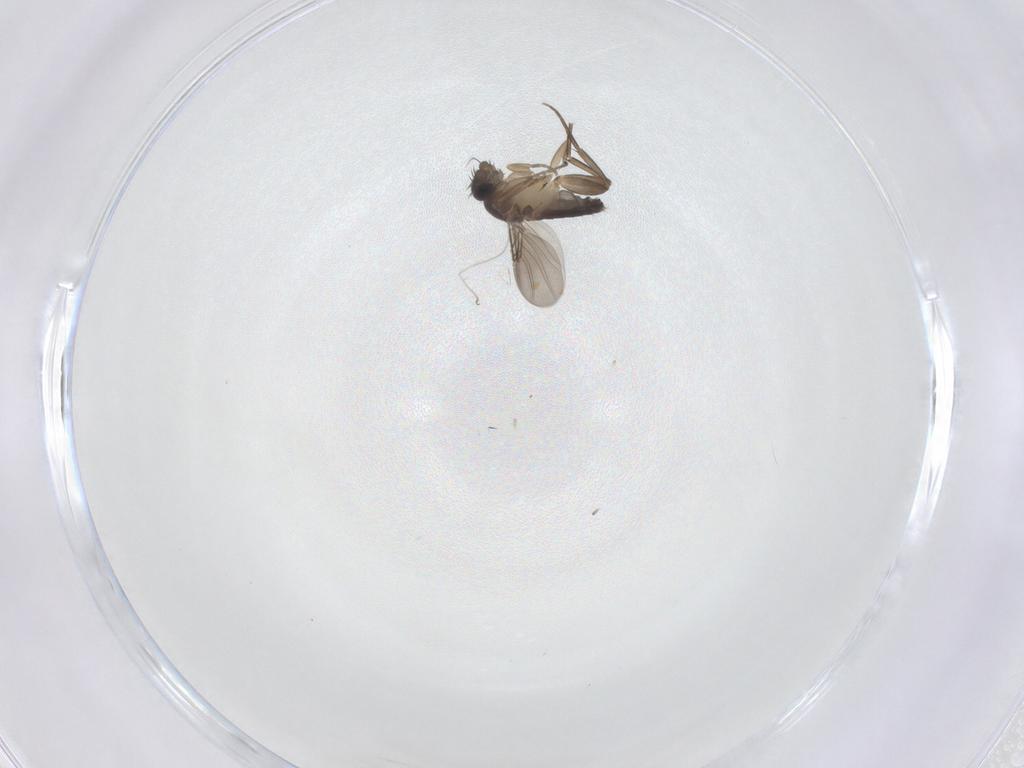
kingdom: Animalia
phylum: Arthropoda
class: Insecta
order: Diptera
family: Phoridae
